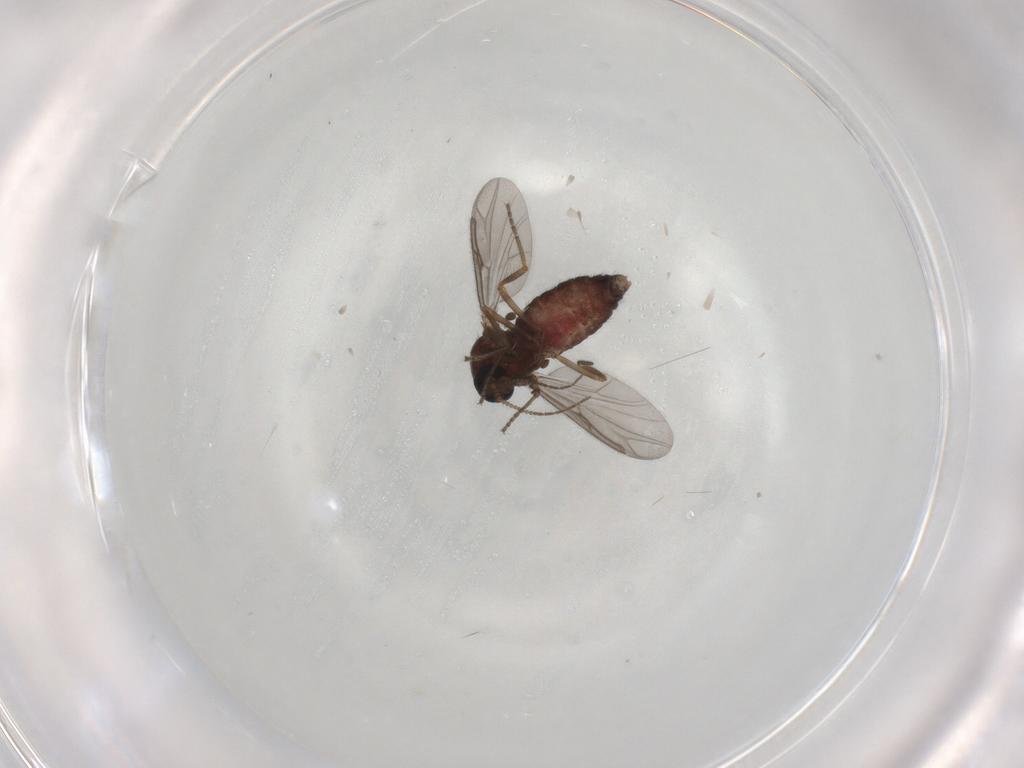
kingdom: Animalia
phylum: Arthropoda
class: Insecta
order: Diptera
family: Ceratopogonidae
